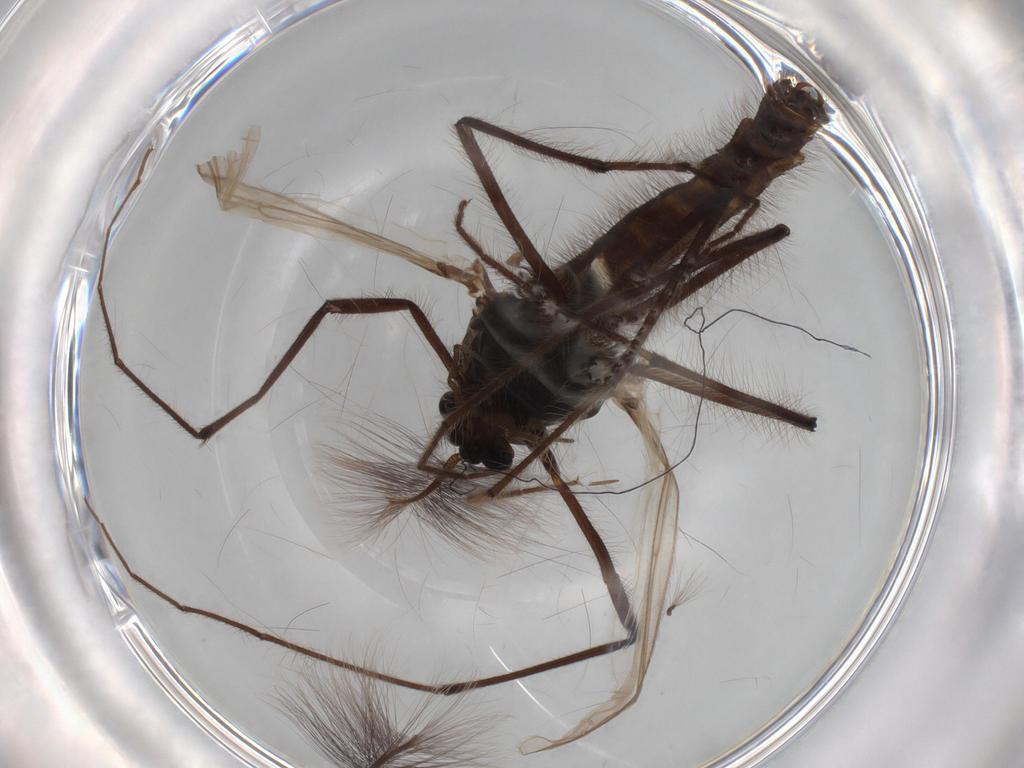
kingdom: Animalia
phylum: Arthropoda
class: Insecta
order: Diptera
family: Chironomidae
